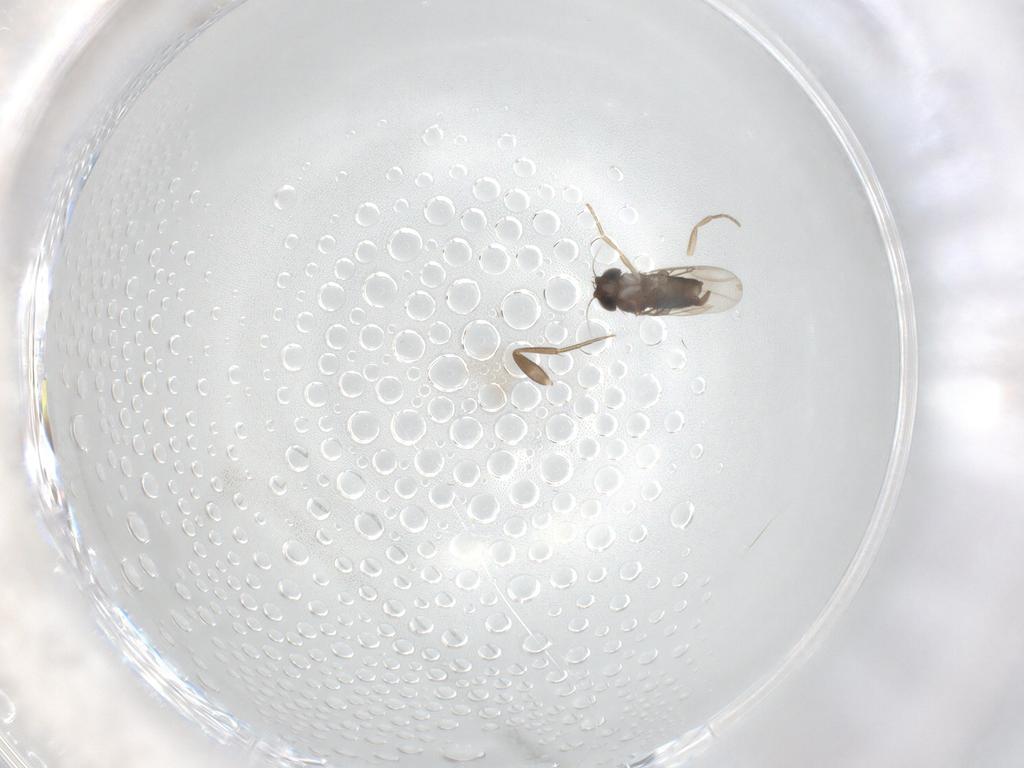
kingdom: Animalia
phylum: Arthropoda
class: Insecta
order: Diptera
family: Phoridae
